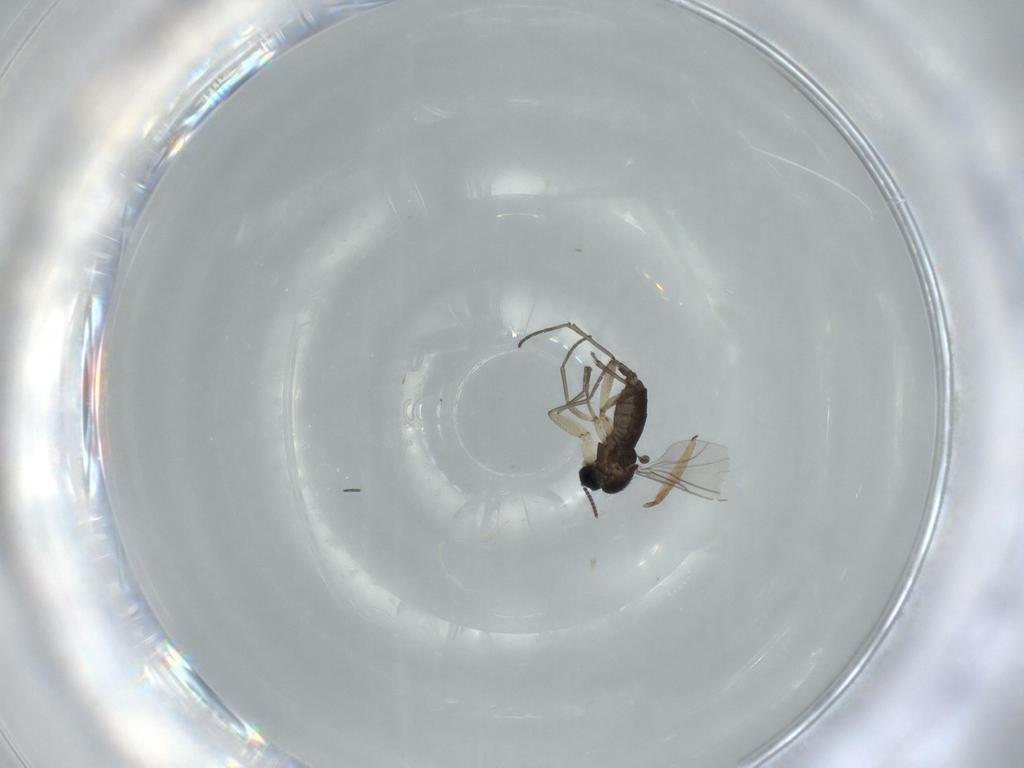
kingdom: Animalia
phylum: Arthropoda
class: Insecta
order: Diptera
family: Sciaridae
